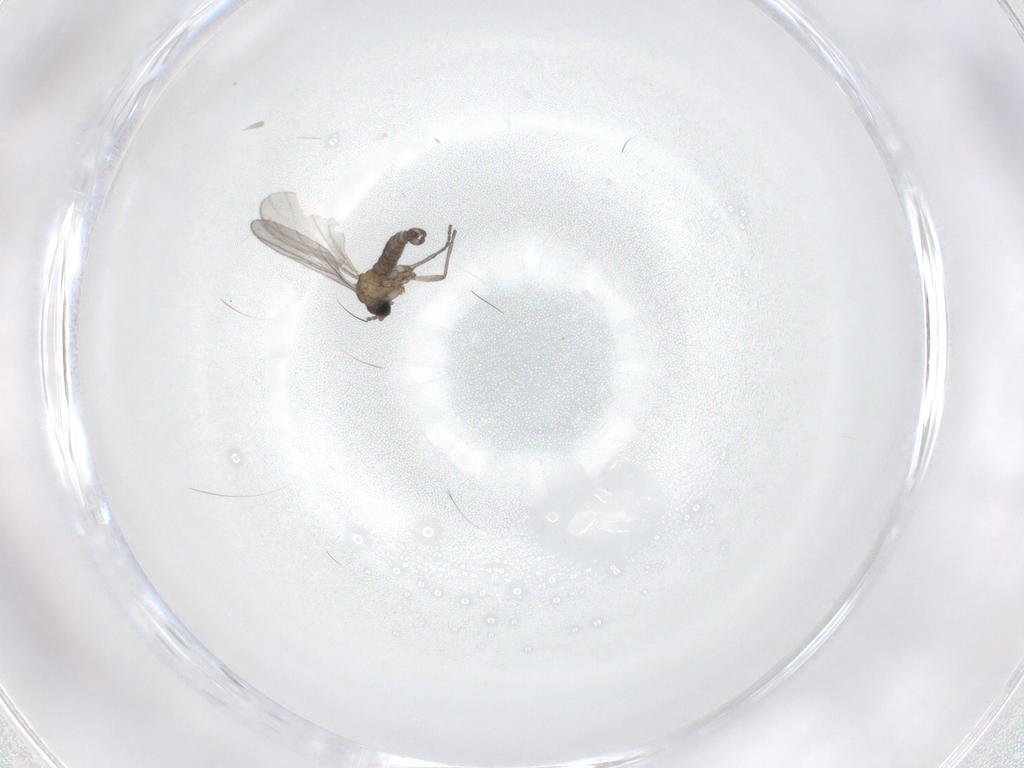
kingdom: Animalia
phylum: Arthropoda
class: Insecta
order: Diptera
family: Sciaridae
